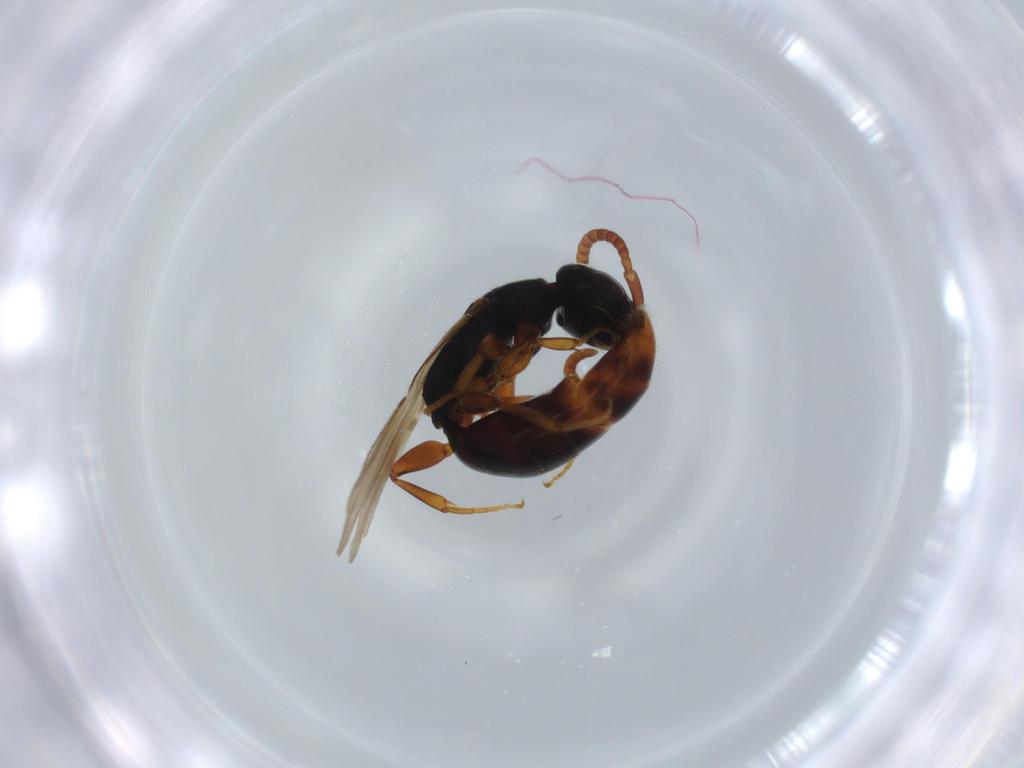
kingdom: Animalia
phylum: Arthropoda
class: Insecta
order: Hymenoptera
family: Bethylidae
